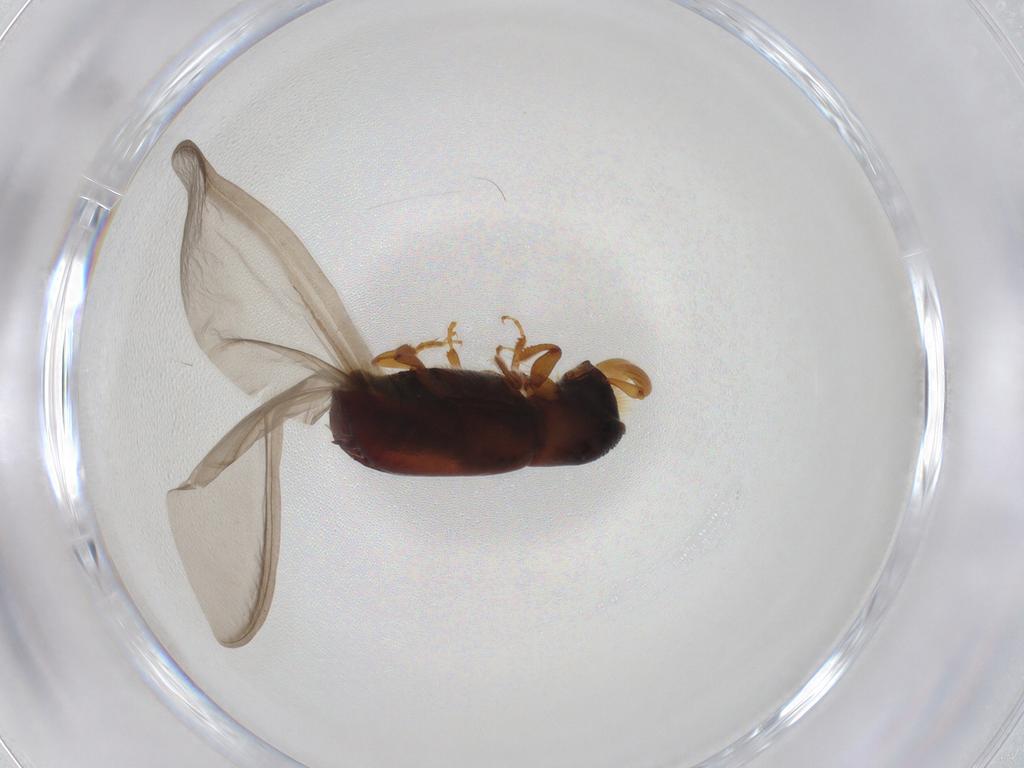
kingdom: Animalia
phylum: Arthropoda
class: Insecta
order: Coleoptera
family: Curculionidae
